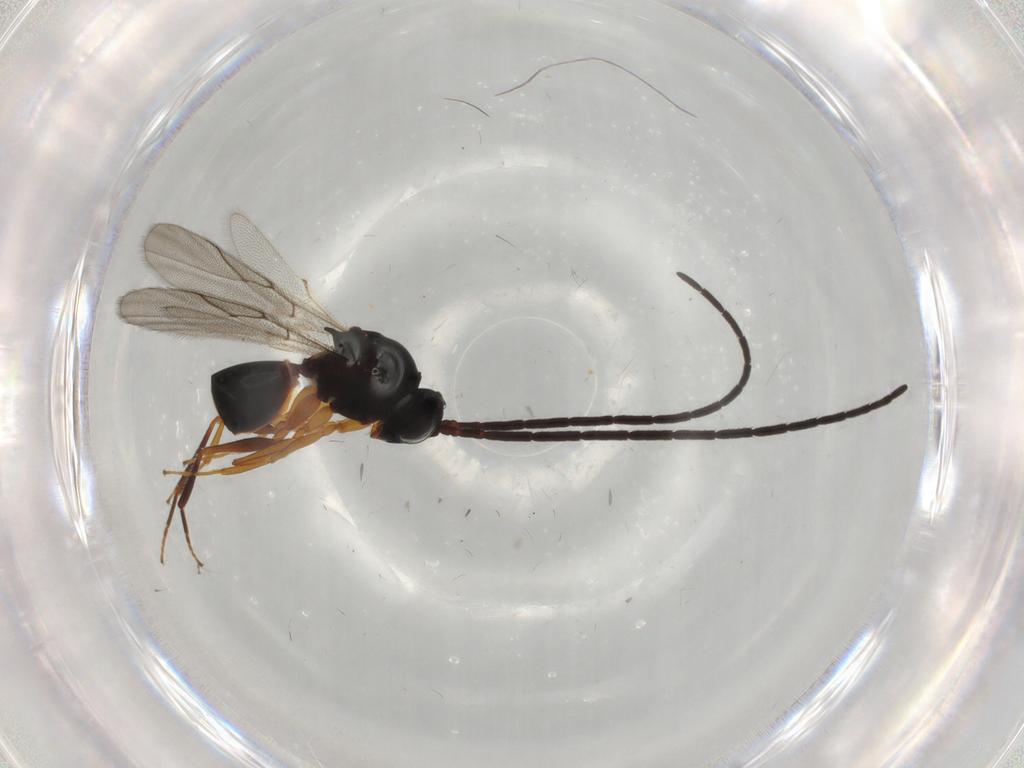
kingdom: Animalia
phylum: Arthropoda
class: Insecta
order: Hymenoptera
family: Figitidae
